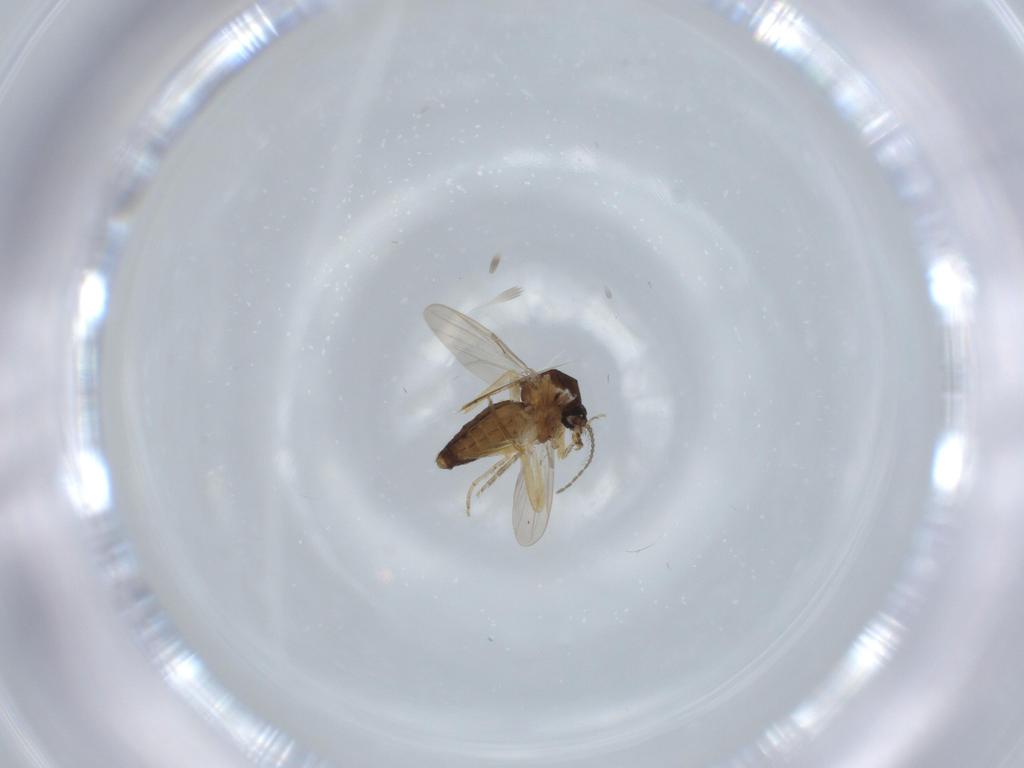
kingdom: Animalia
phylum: Arthropoda
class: Insecta
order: Diptera
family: Ceratopogonidae
